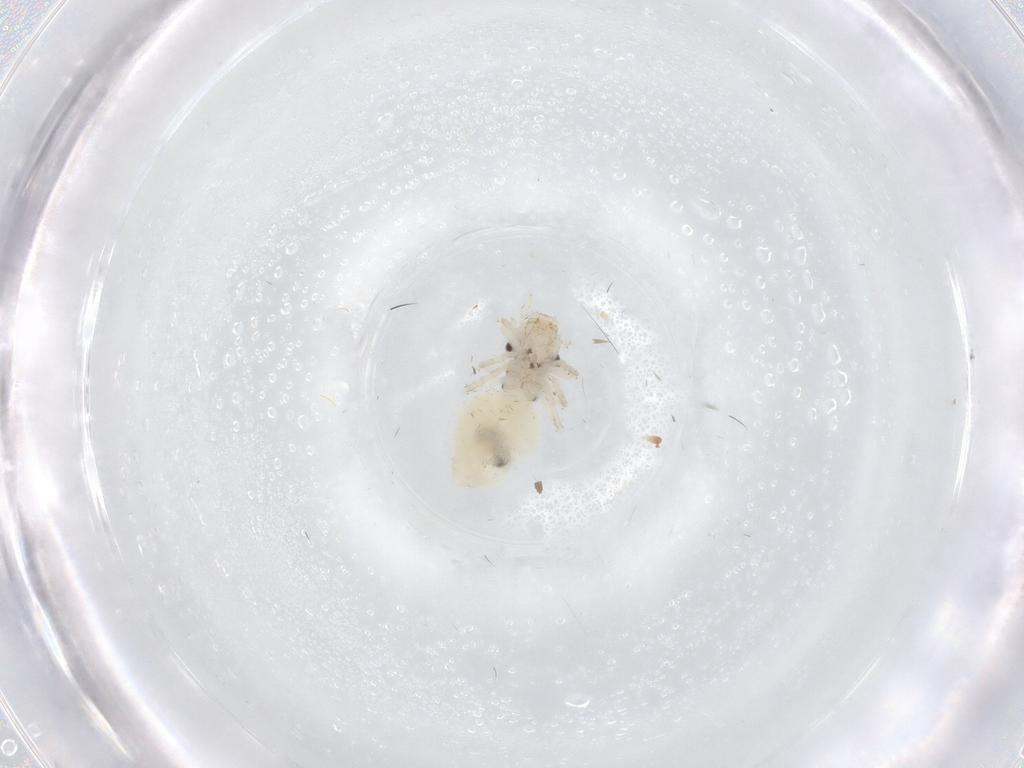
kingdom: Animalia
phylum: Arthropoda
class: Insecta
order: Psocodea
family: Amphipsocidae
